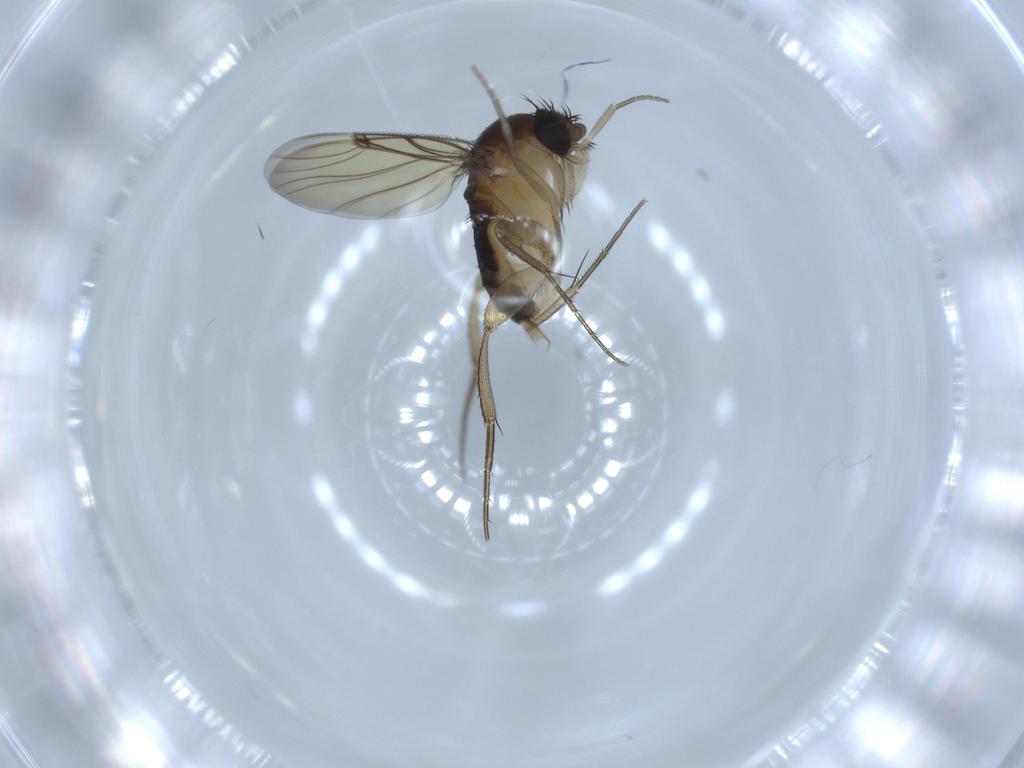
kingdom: Animalia
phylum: Arthropoda
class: Insecta
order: Diptera
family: Phoridae
